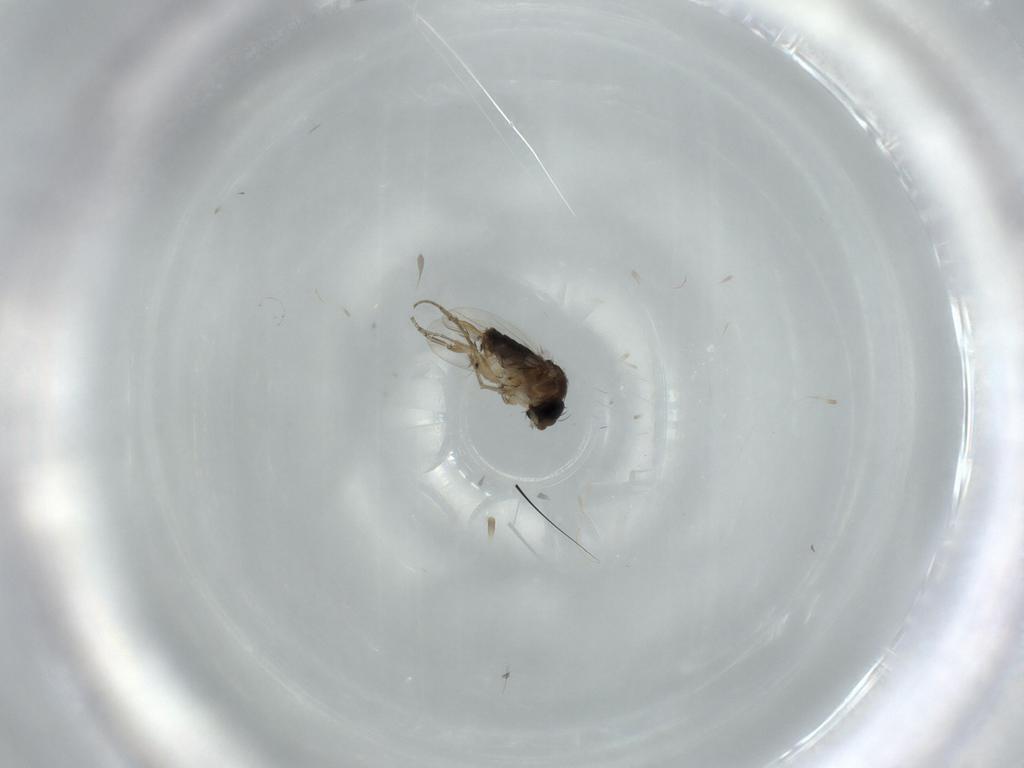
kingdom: Animalia
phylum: Arthropoda
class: Insecta
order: Diptera
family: Phoridae
